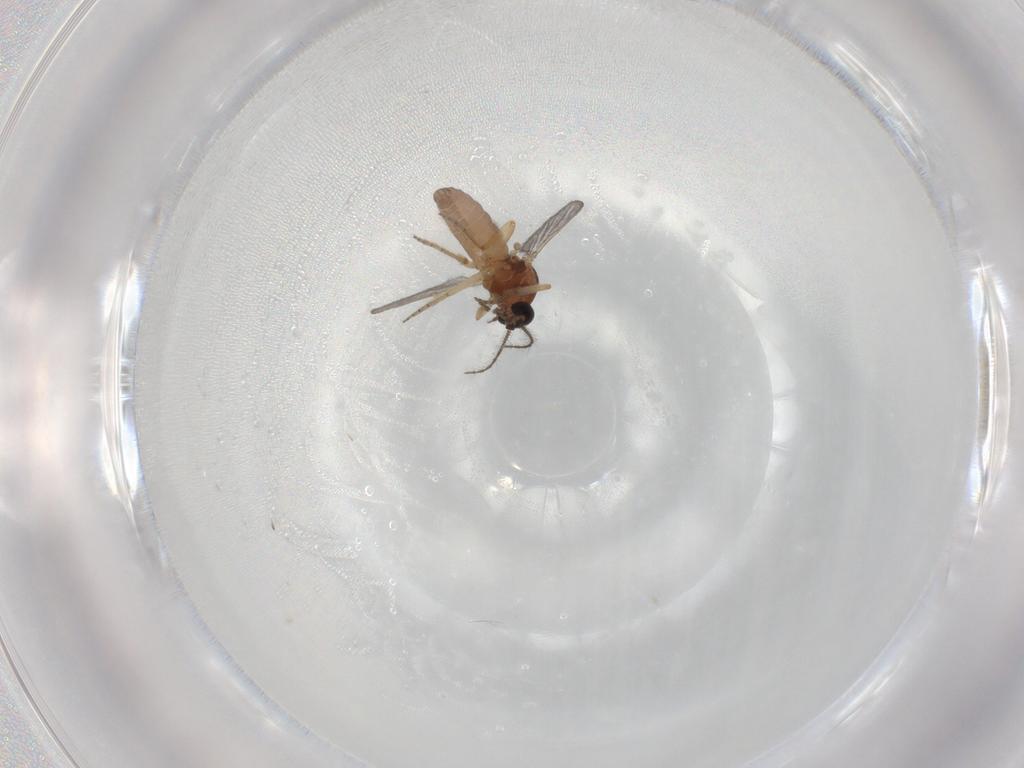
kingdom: Animalia
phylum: Arthropoda
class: Insecta
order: Diptera
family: Ceratopogonidae
